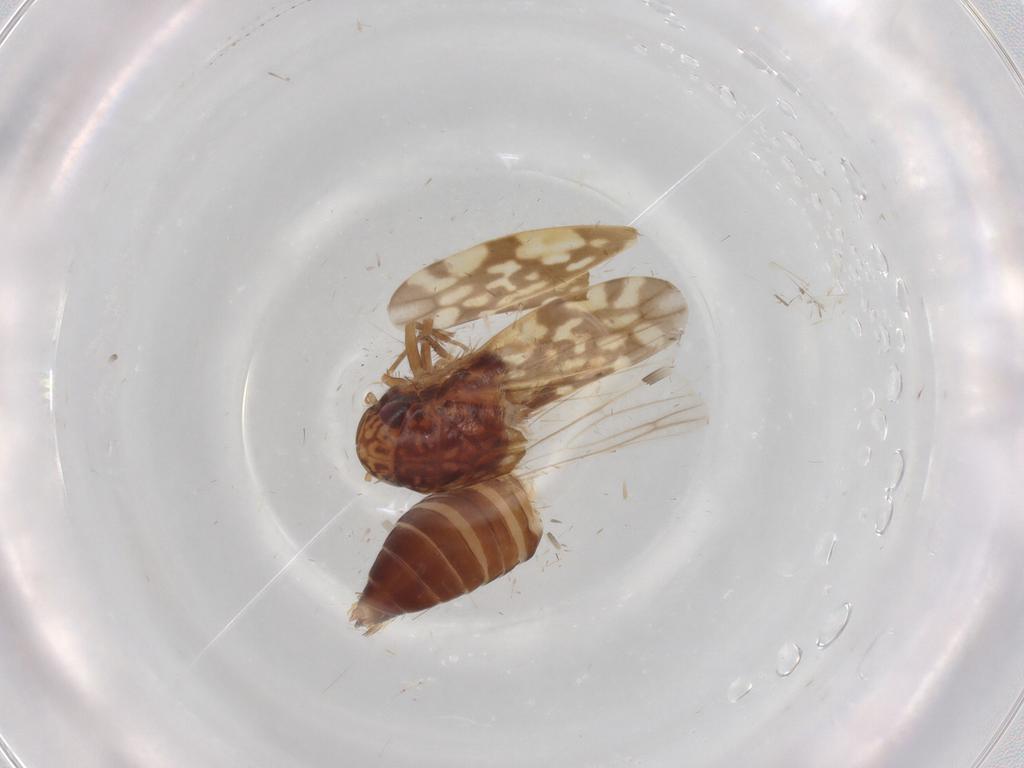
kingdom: Animalia
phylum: Arthropoda
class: Insecta
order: Hemiptera
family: Cicadellidae
